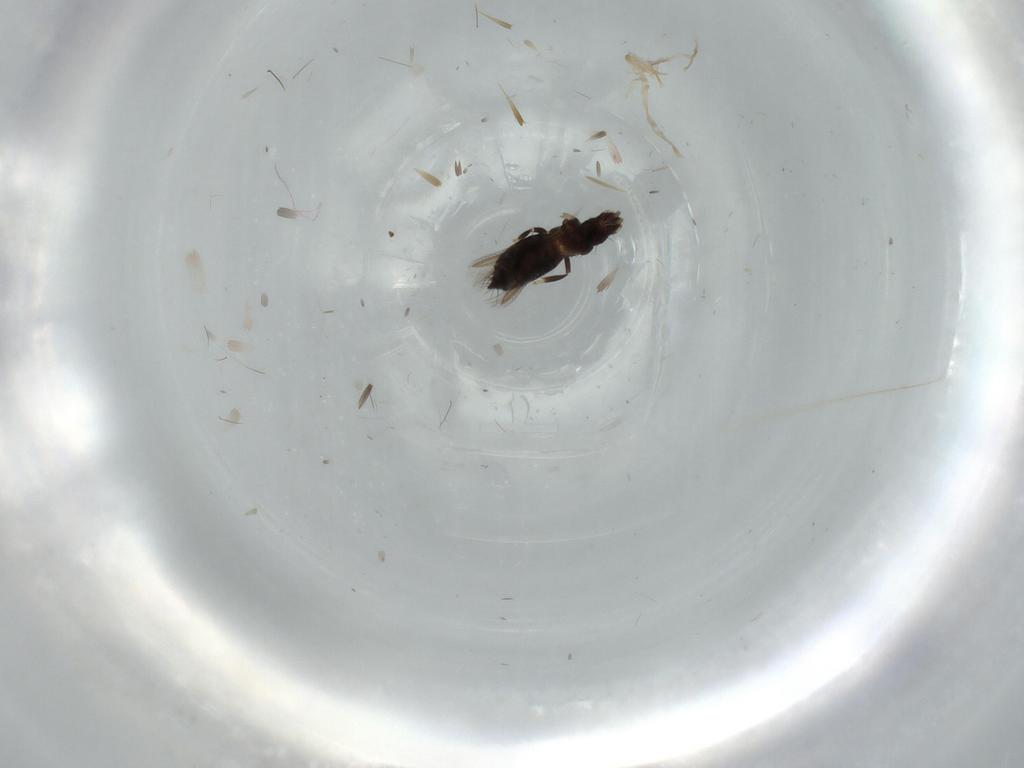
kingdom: Animalia
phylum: Arthropoda
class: Insecta
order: Thysanoptera
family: Thripidae
